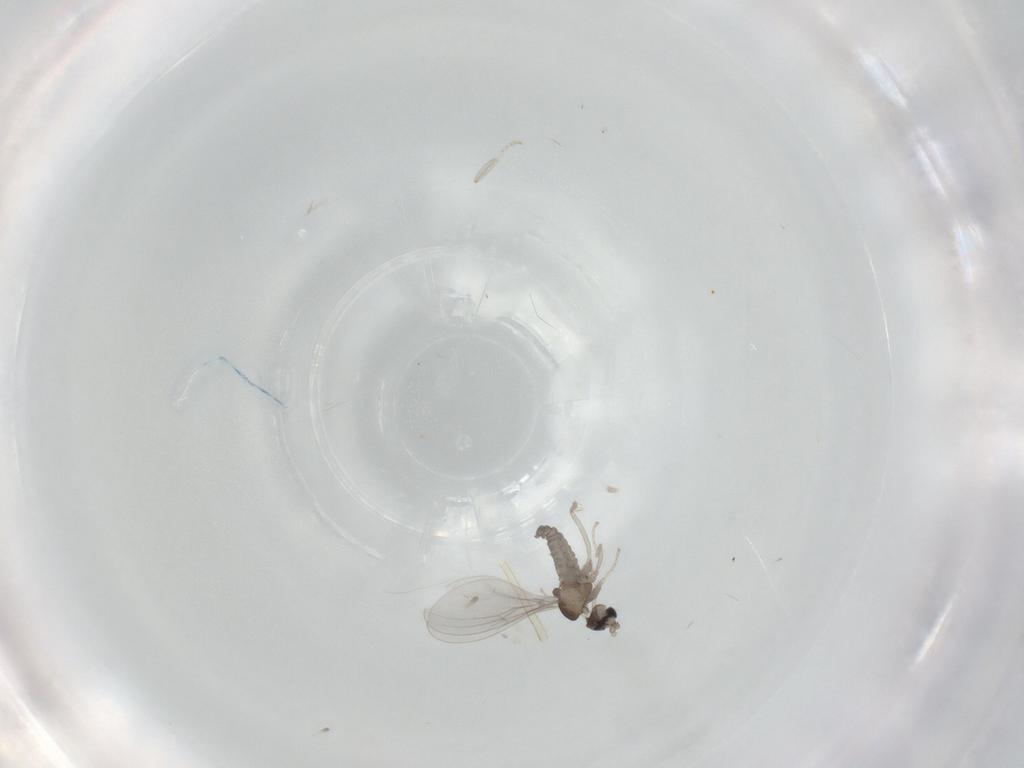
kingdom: Animalia
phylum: Arthropoda
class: Insecta
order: Diptera
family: Cecidomyiidae
